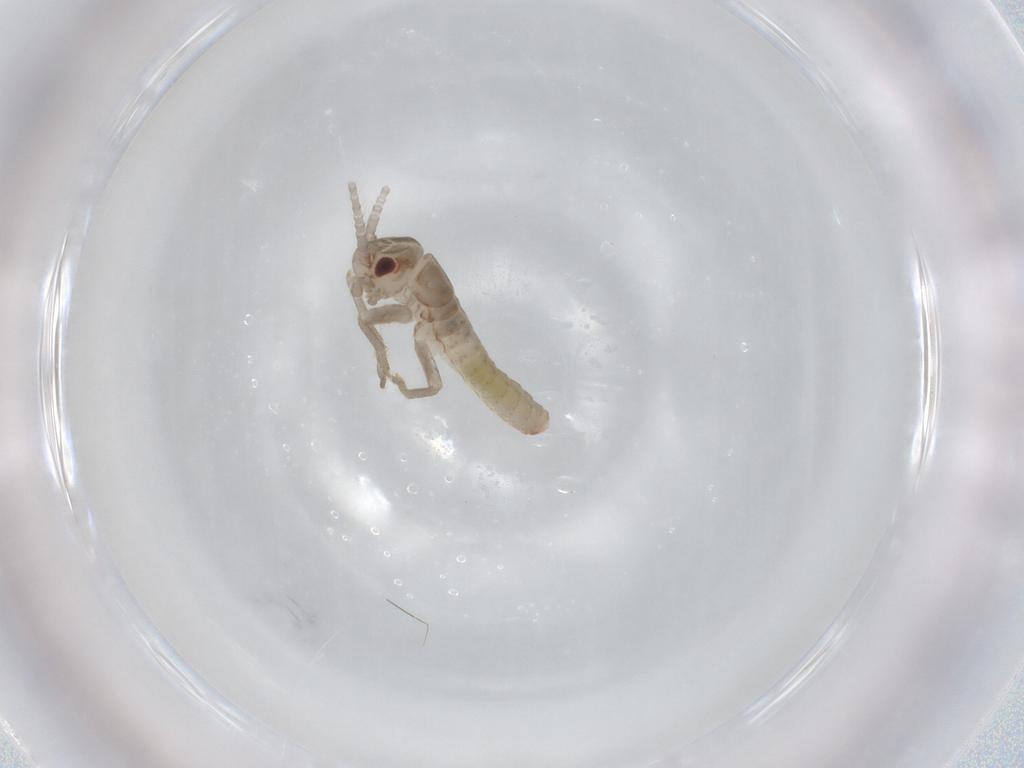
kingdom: Animalia
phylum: Arthropoda
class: Insecta
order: Orthoptera
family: Mogoplistidae
